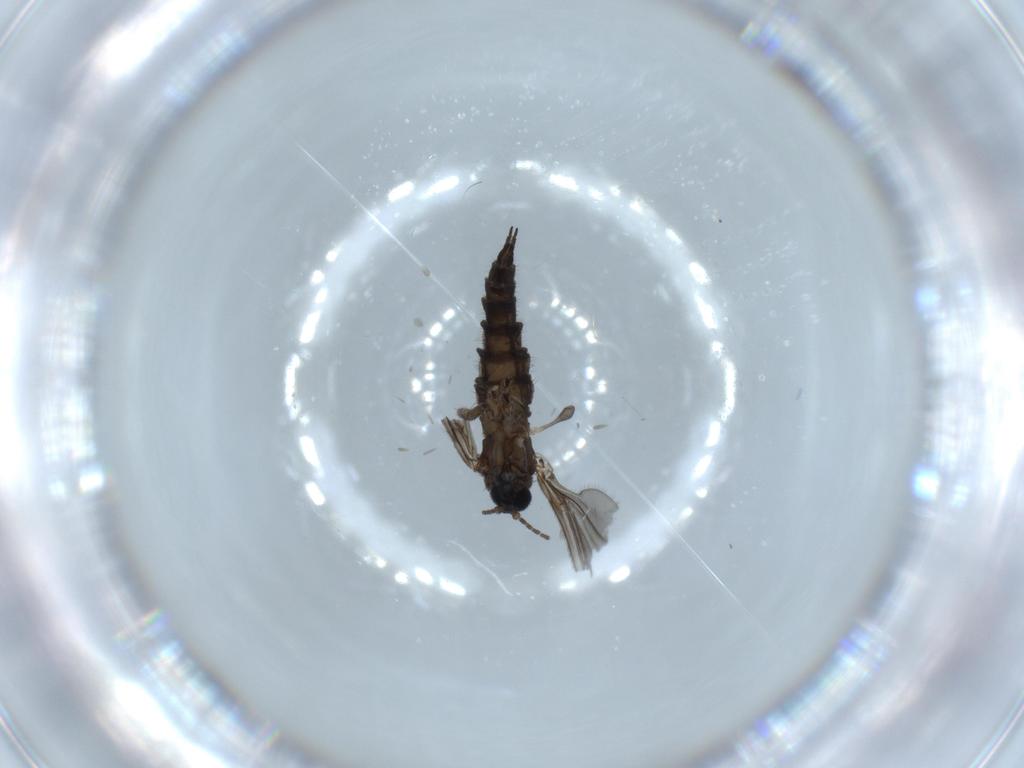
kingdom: Animalia
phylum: Arthropoda
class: Insecta
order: Diptera
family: Sciaridae
